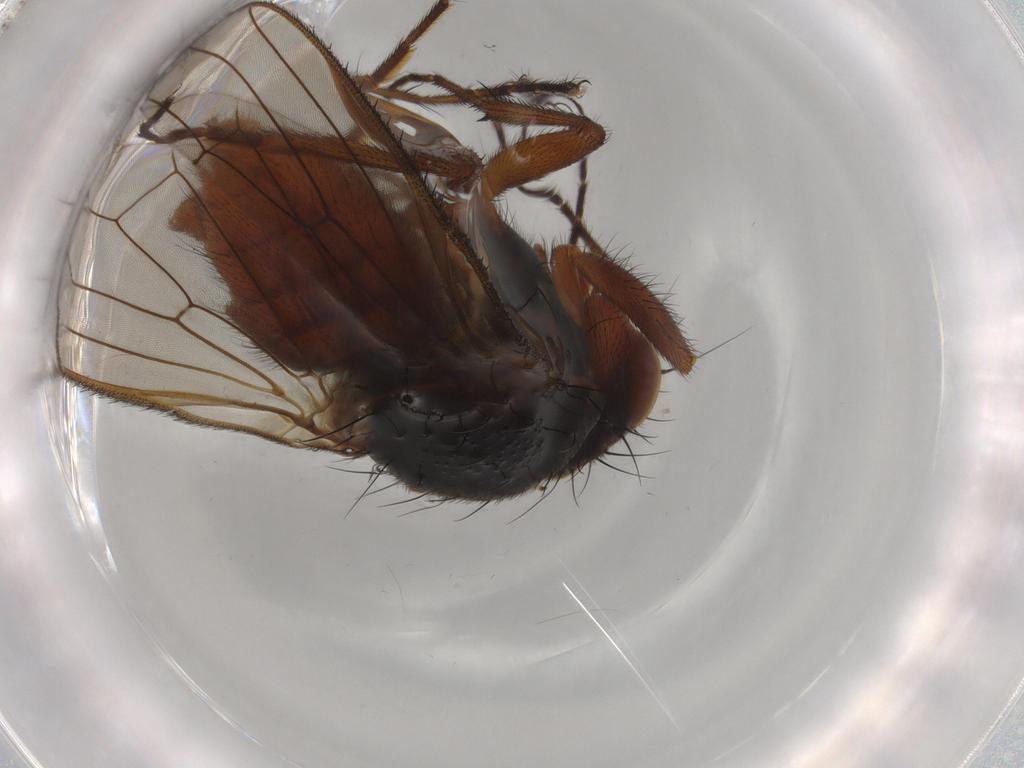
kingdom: Animalia
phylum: Arthropoda
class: Insecta
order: Diptera
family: Heleomyzidae
